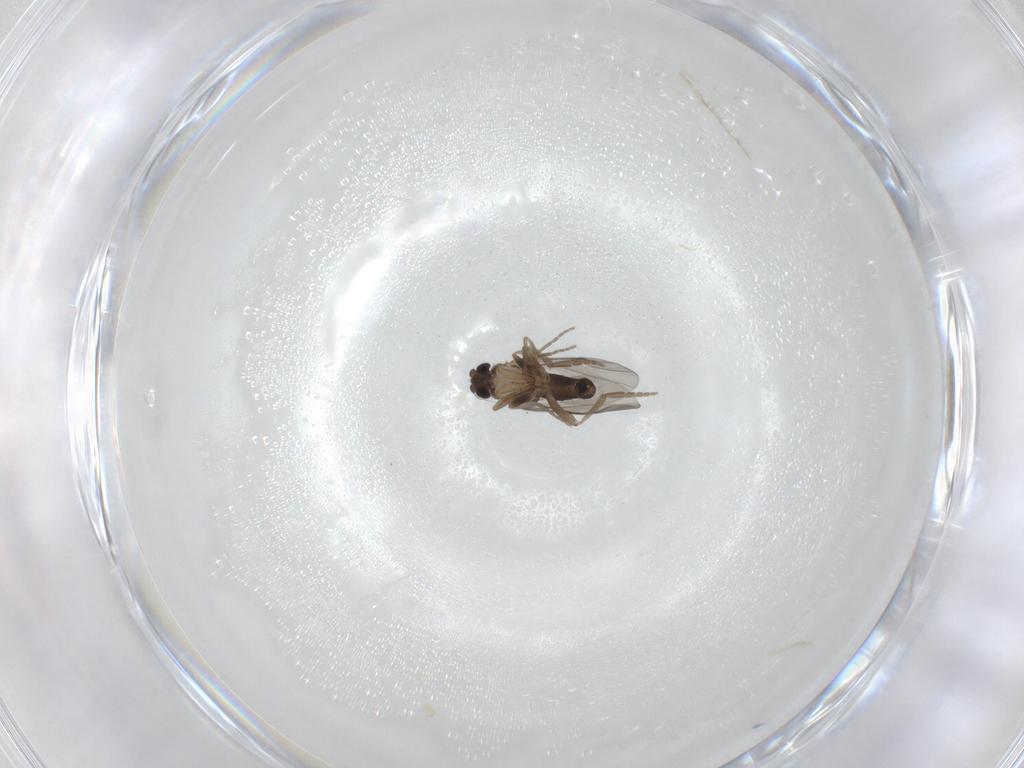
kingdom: Animalia
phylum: Arthropoda
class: Insecta
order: Diptera
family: Phoridae
